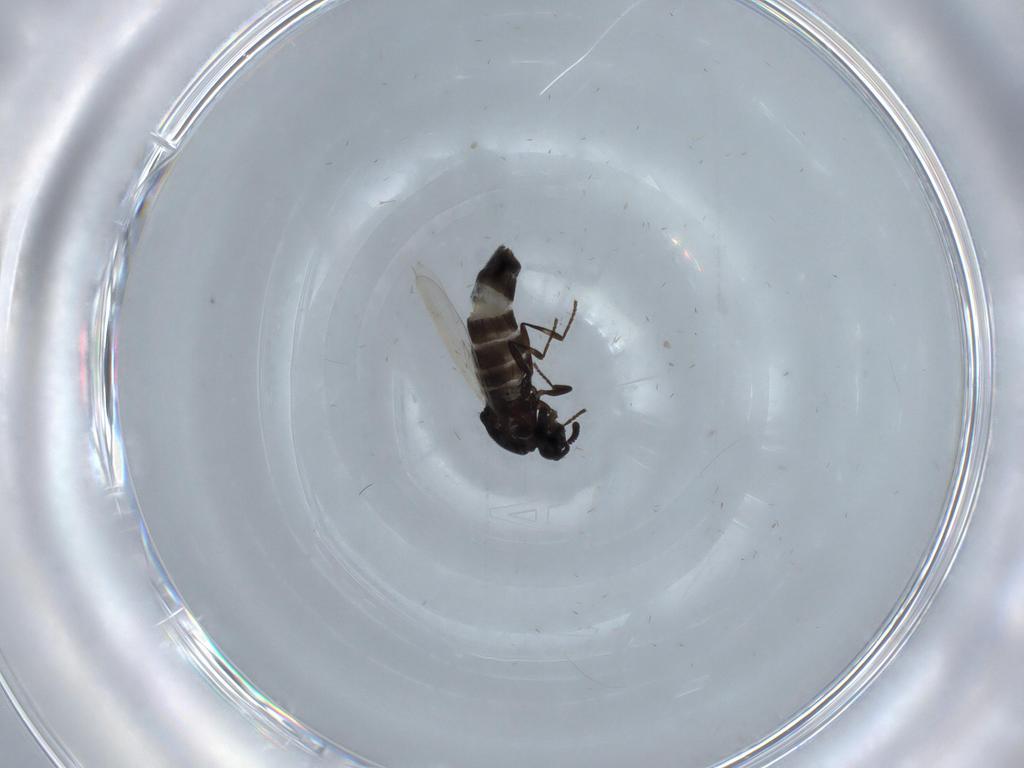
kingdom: Animalia
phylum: Arthropoda
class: Insecta
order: Diptera
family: Scatopsidae
